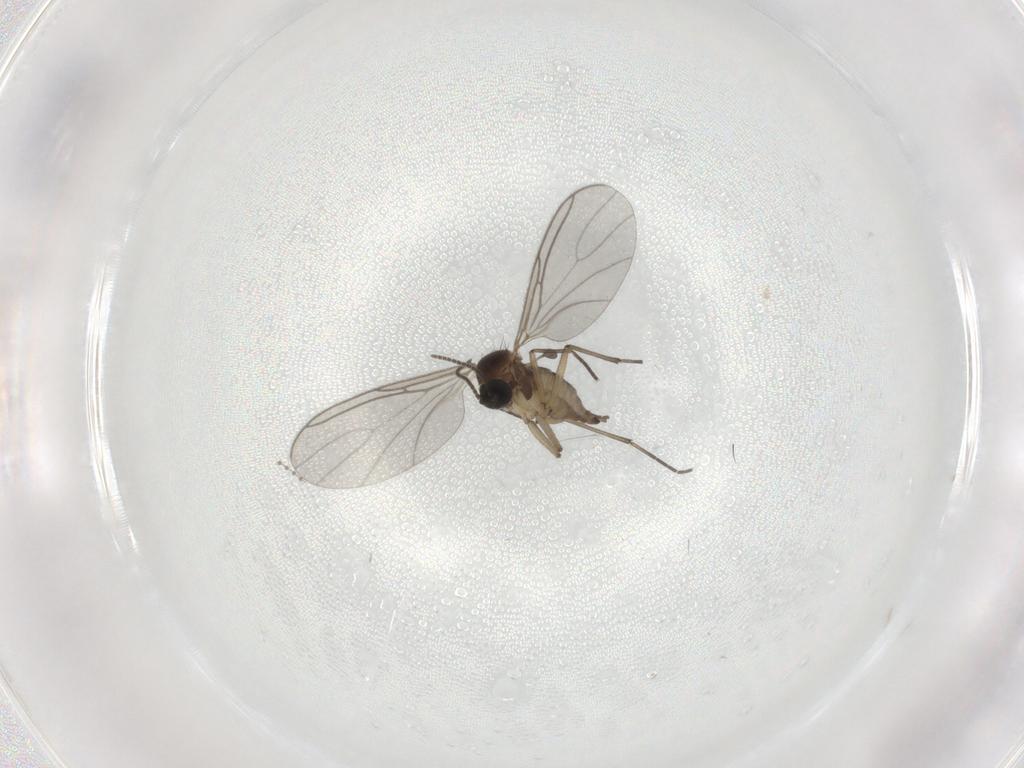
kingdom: Animalia
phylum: Arthropoda
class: Insecta
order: Diptera
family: Sciaridae
